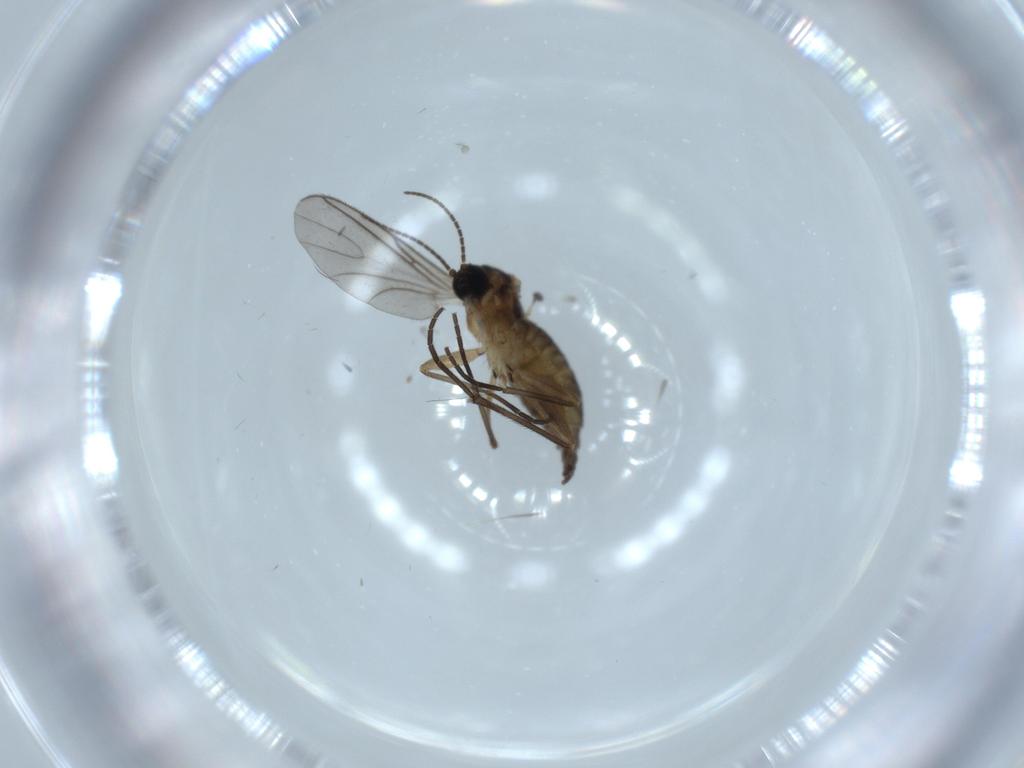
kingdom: Animalia
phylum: Arthropoda
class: Insecta
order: Diptera
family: Sciaridae
